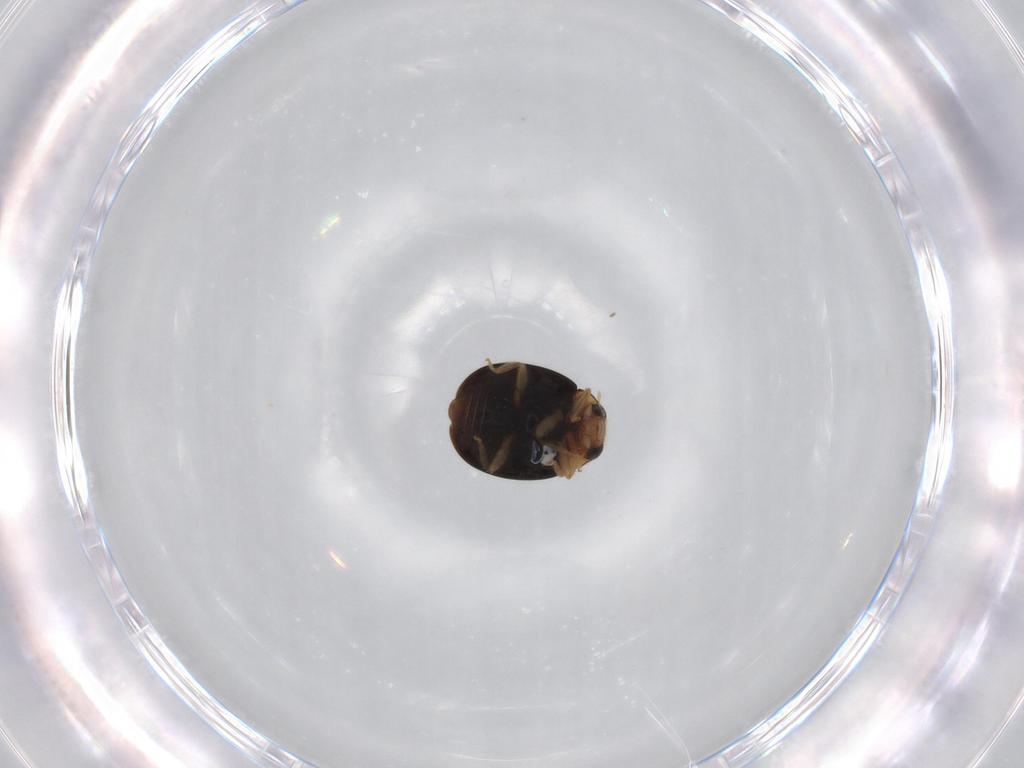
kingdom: Animalia
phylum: Arthropoda
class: Insecta
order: Coleoptera
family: Coccinellidae
